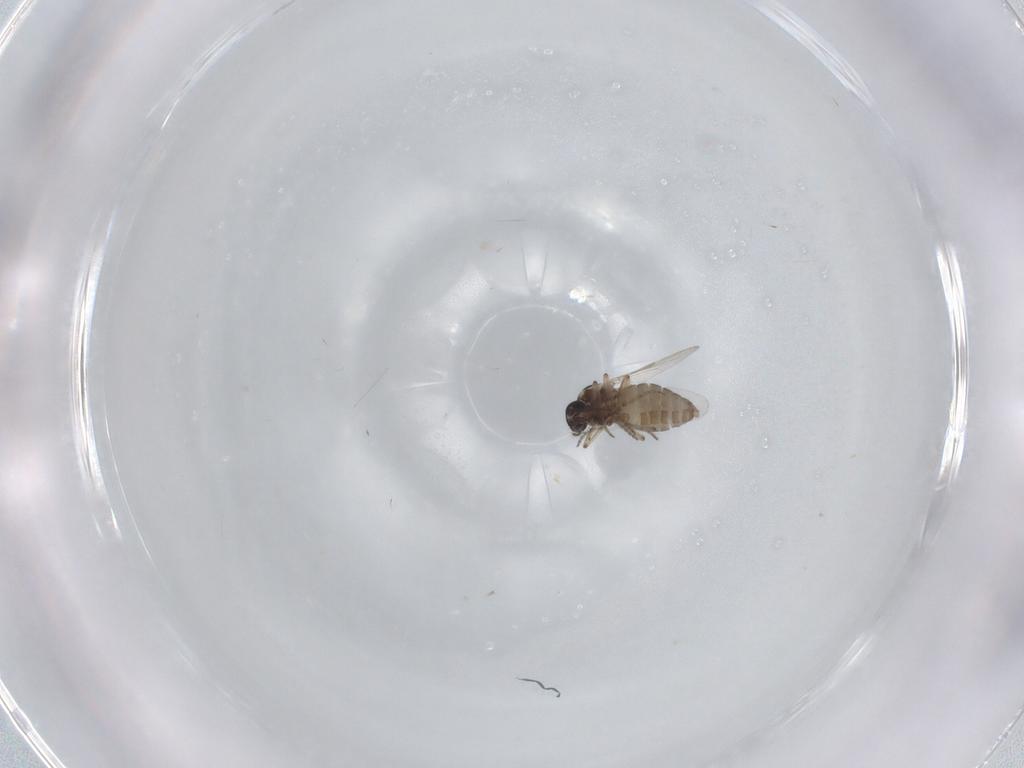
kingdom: Animalia
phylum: Arthropoda
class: Insecta
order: Diptera
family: Ceratopogonidae
